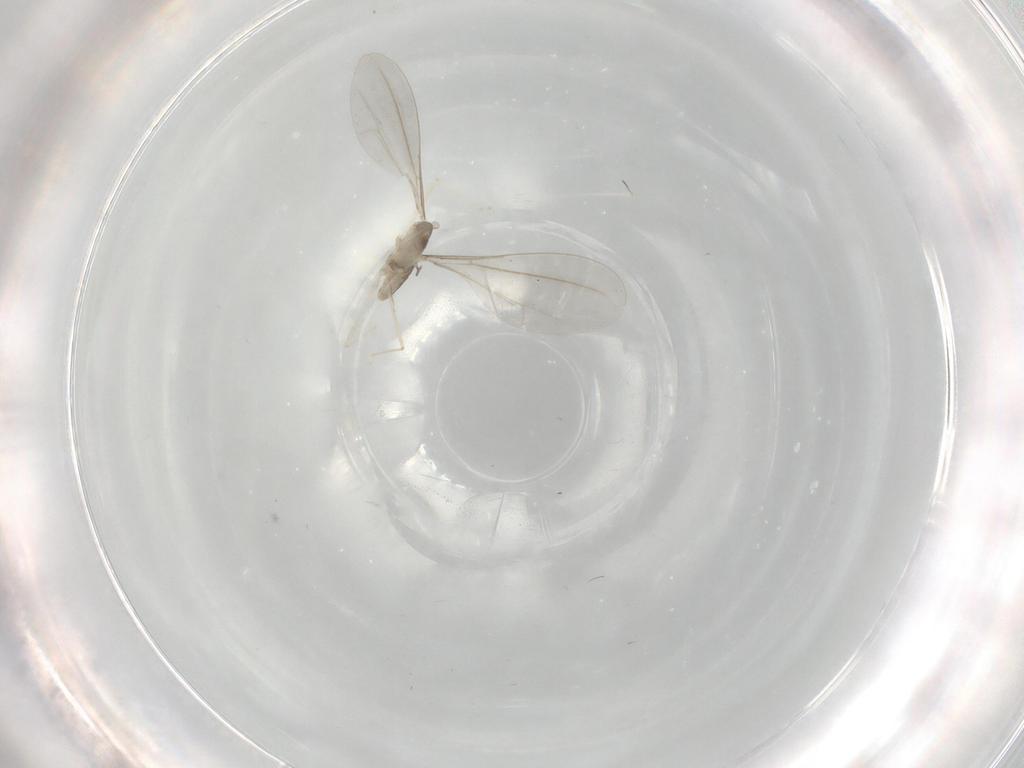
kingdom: Animalia
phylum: Arthropoda
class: Insecta
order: Diptera
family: Cecidomyiidae
